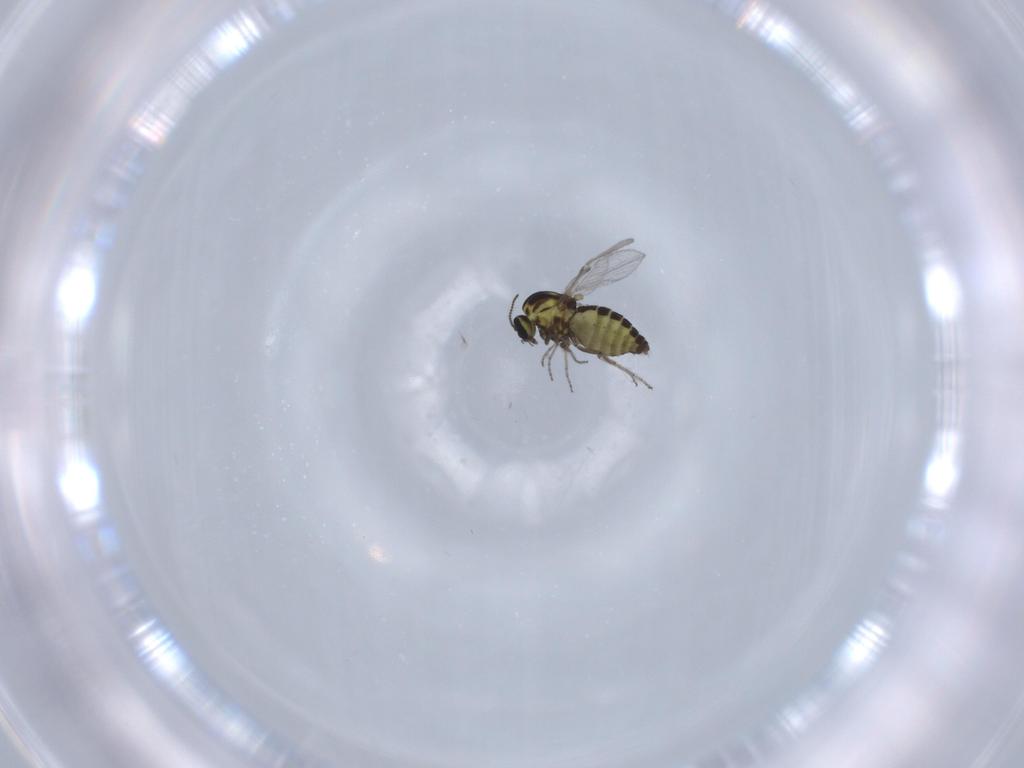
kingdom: Animalia
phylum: Arthropoda
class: Insecta
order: Diptera
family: Ceratopogonidae
